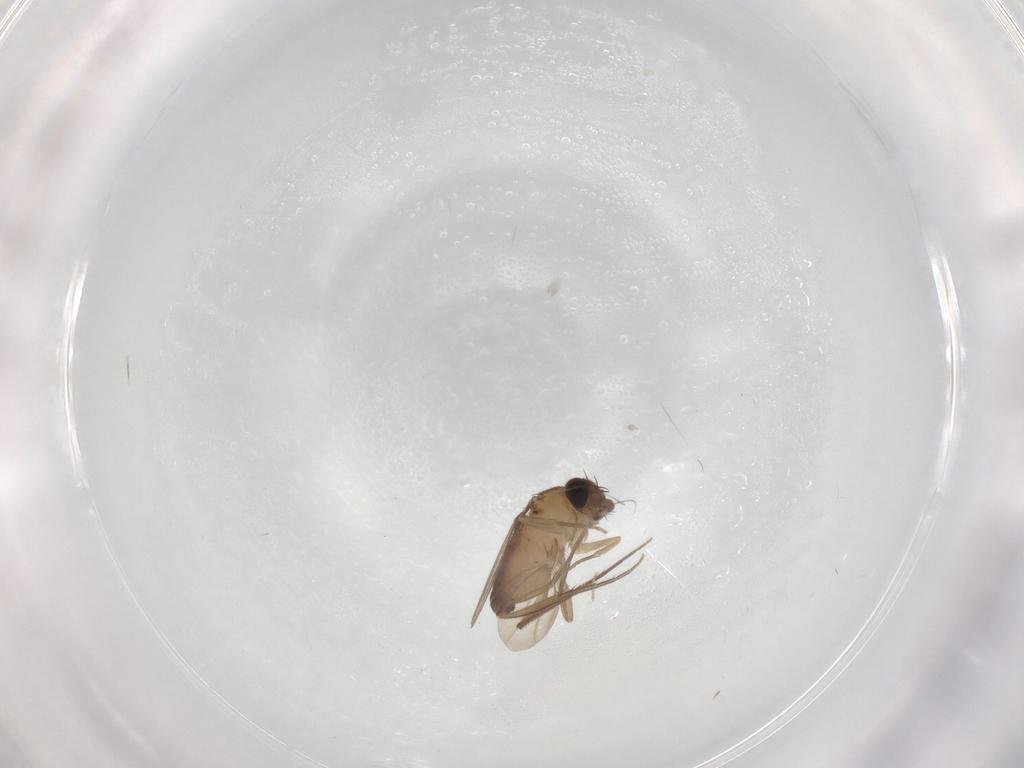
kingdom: Animalia
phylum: Arthropoda
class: Insecta
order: Diptera
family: Phoridae
